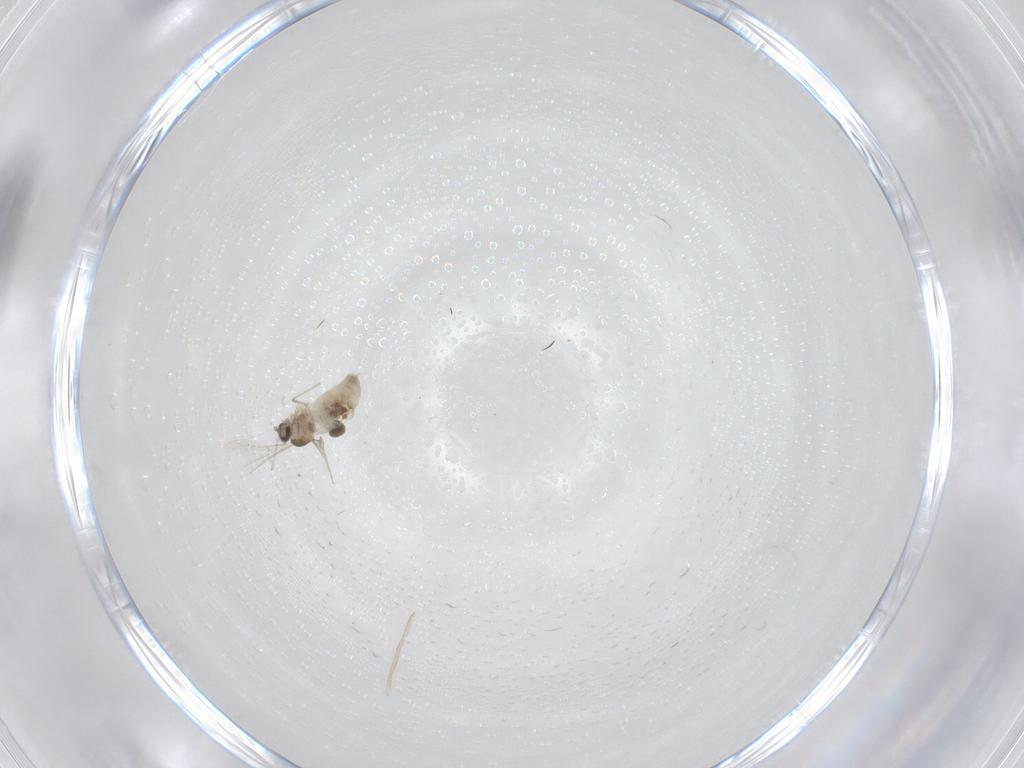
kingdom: Animalia
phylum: Arthropoda
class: Insecta
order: Diptera
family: Cecidomyiidae
